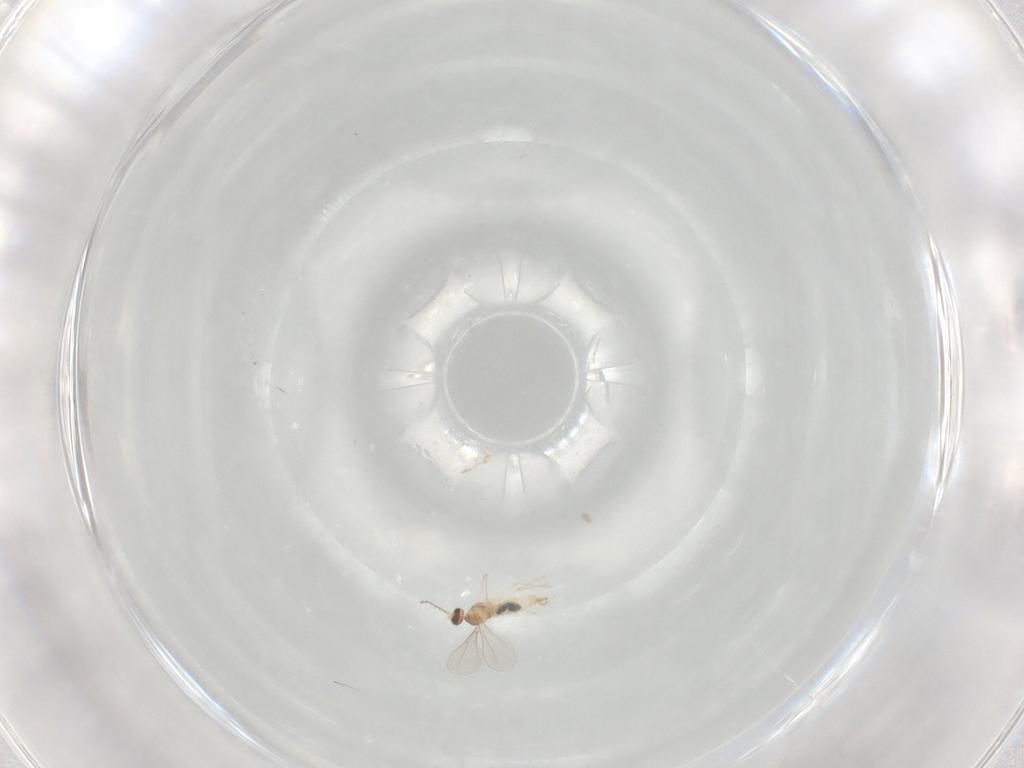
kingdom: Animalia
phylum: Arthropoda
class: Insecta
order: Diptera
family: Cecidomyiidae
